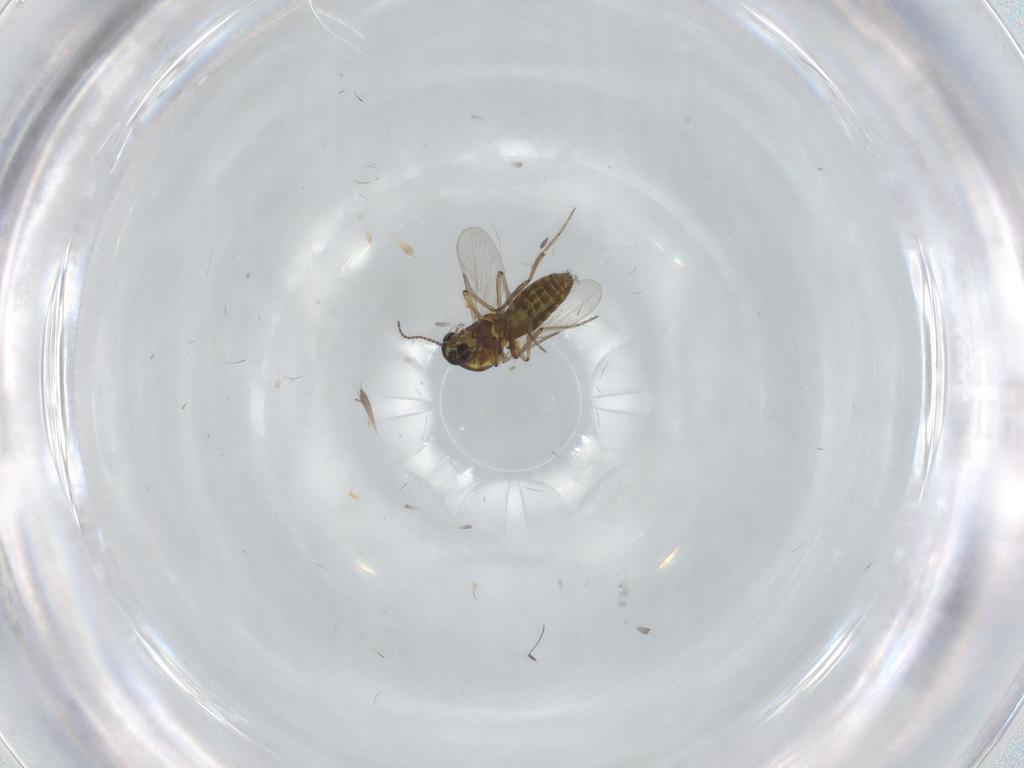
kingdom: Animalia
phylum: Arthropoda
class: Insecta
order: Diptera
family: Ceratopogonidae
